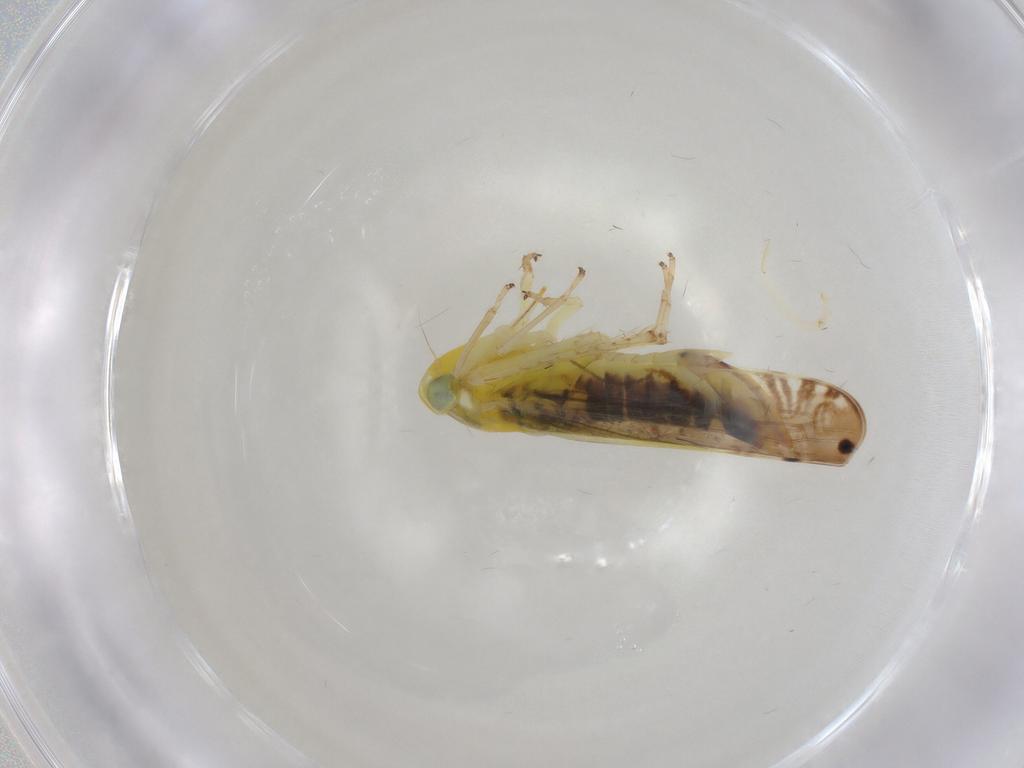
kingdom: Animalia
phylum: Arthropoda
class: Insecta
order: Hemiptera
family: Cicadellidae
